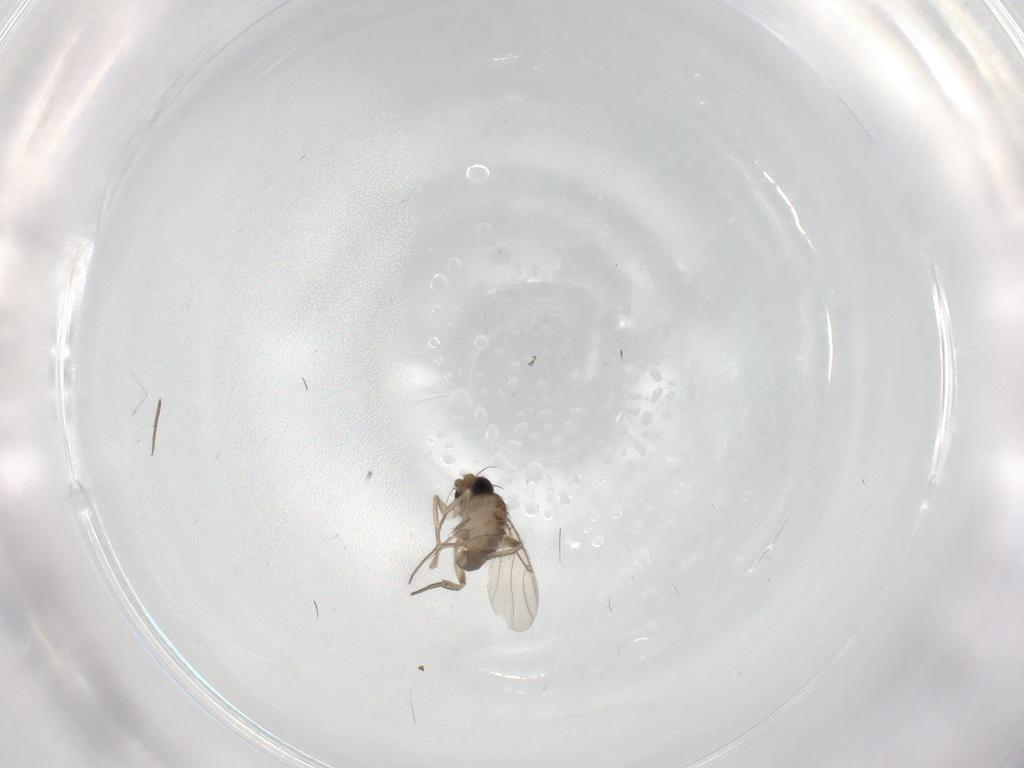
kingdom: Animalia
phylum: Arthropoda
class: Insecta
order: Diptera
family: Phoridae
